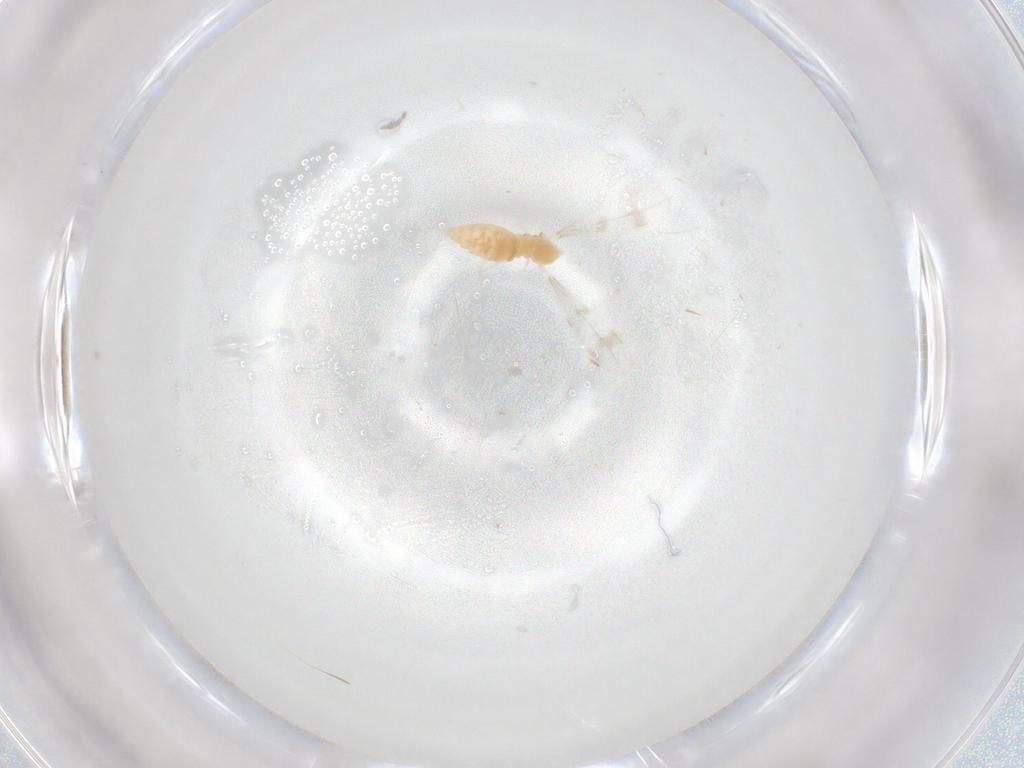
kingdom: Animalia
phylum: Arthropoda
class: Insecta
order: Diptera
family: Cecidomyiidae
